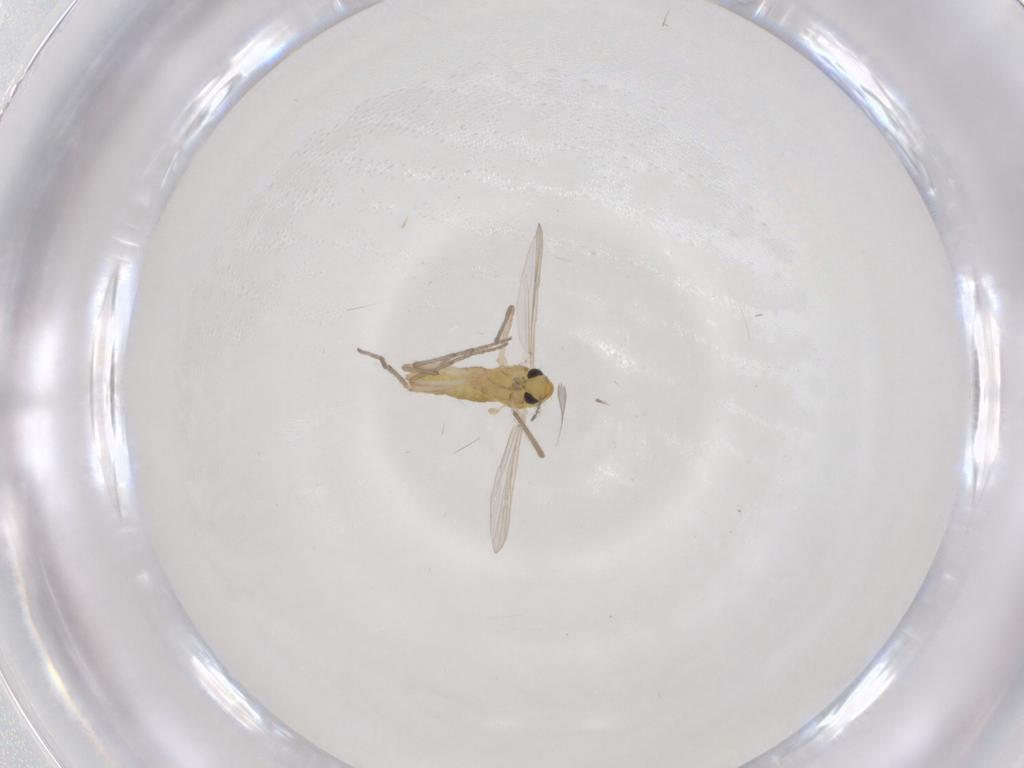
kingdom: Animalia
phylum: Arthropoda
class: Insecta
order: Diptera
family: Chironomidae
